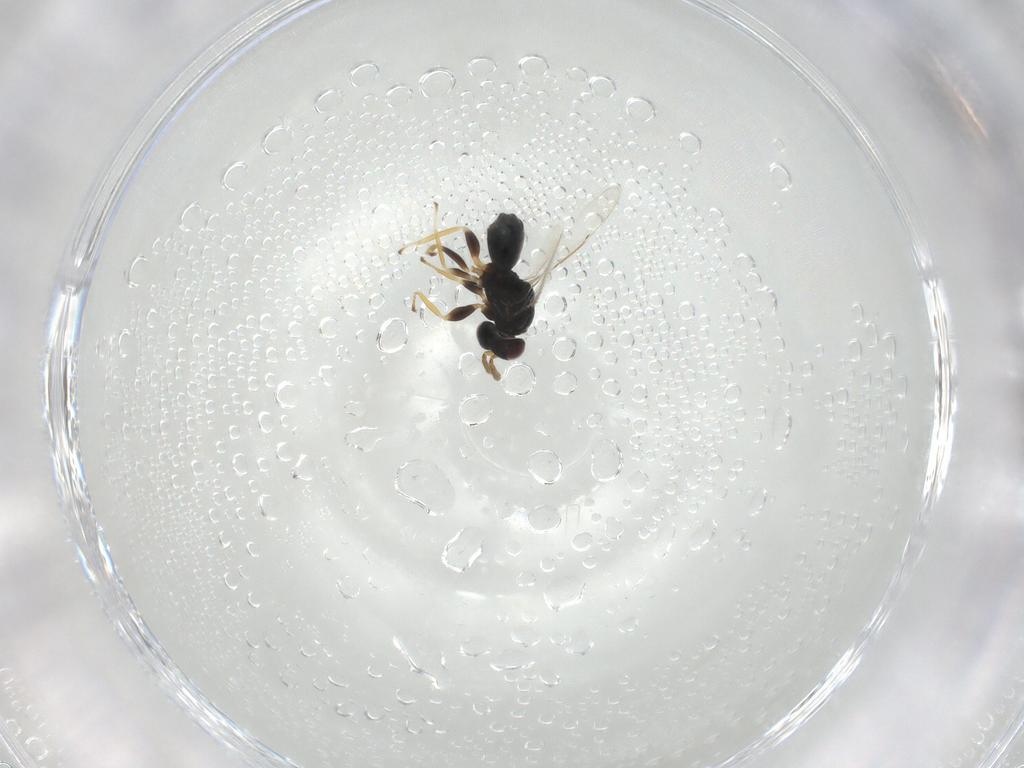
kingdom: Animalia
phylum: Arthropoda
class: Insecta
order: Hymenoptera
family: Eulophidae
